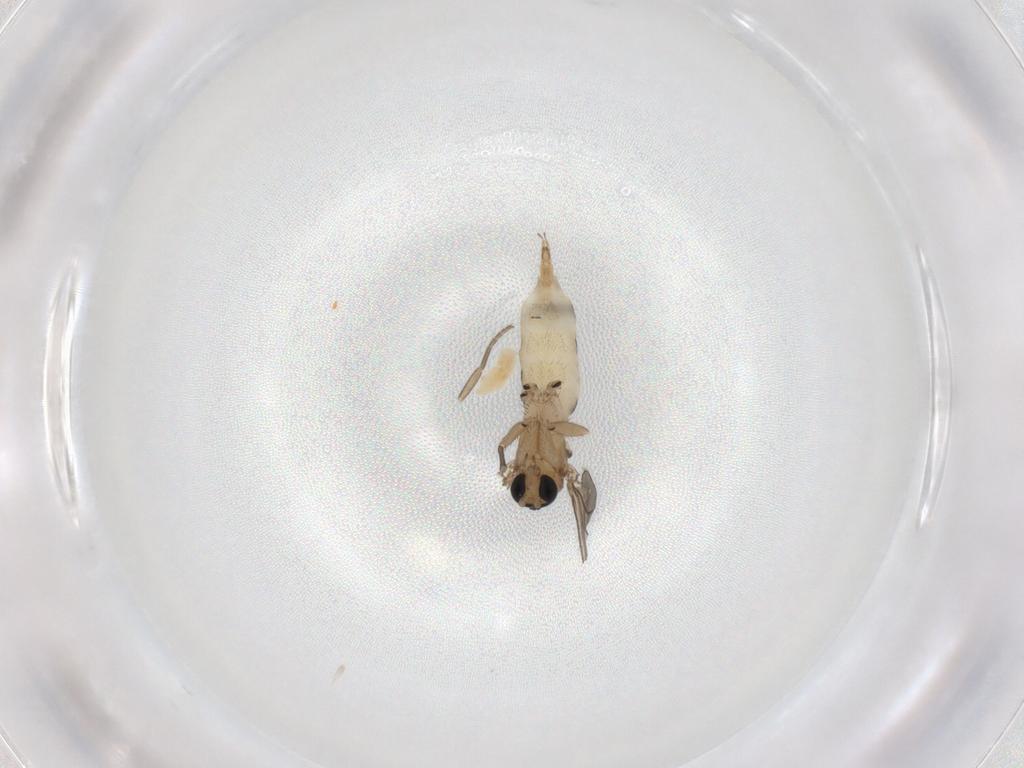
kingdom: Animalia
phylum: Arthropoda
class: Insecta
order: Diptera
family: Sciaridae
